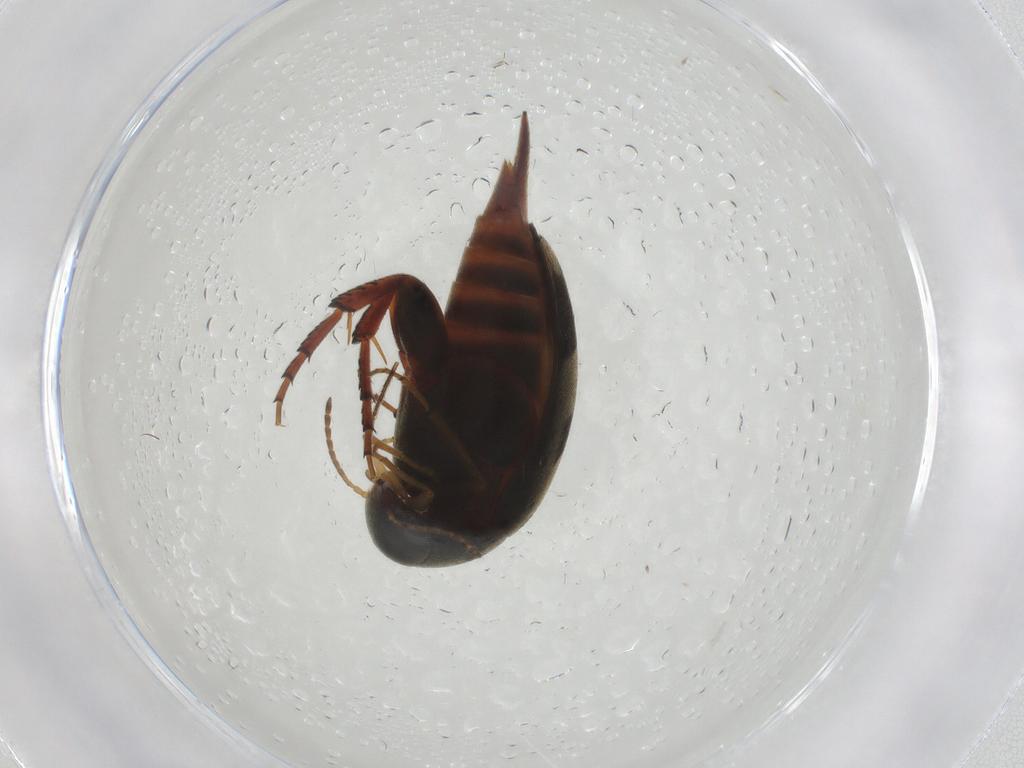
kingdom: Animalia
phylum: Arthropoda
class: Insecta
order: Coleoptera
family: Mordellidae
